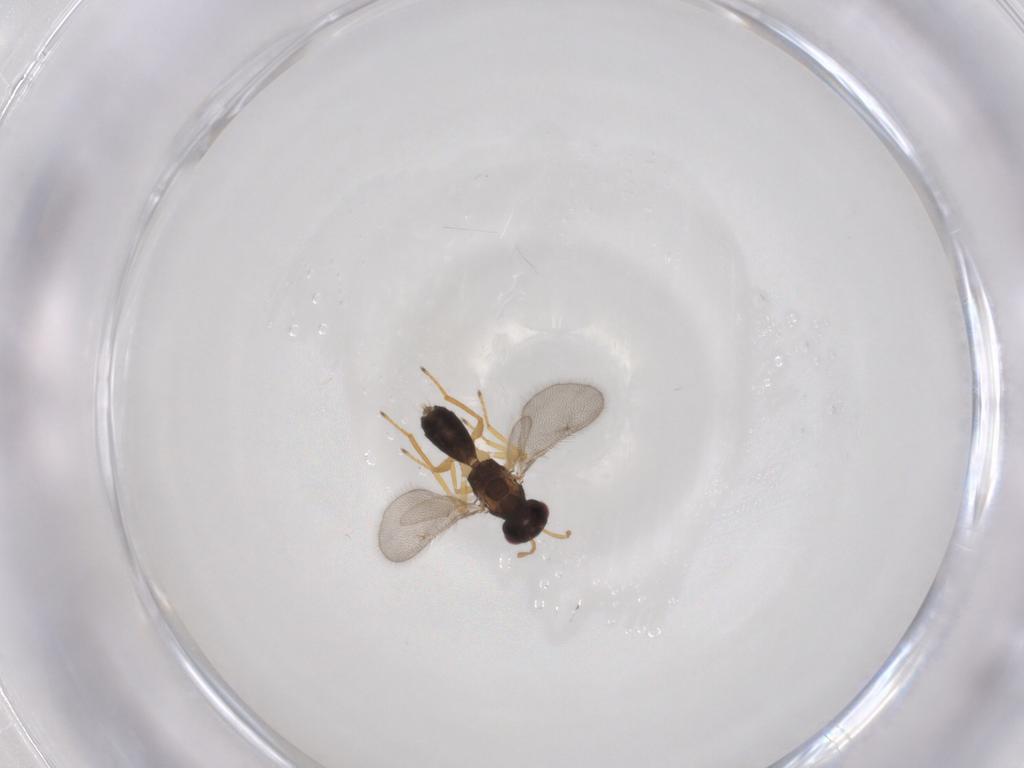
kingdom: Animalia
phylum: Arthropoda
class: Insecta
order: Hymenoptera
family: Eulophidae
